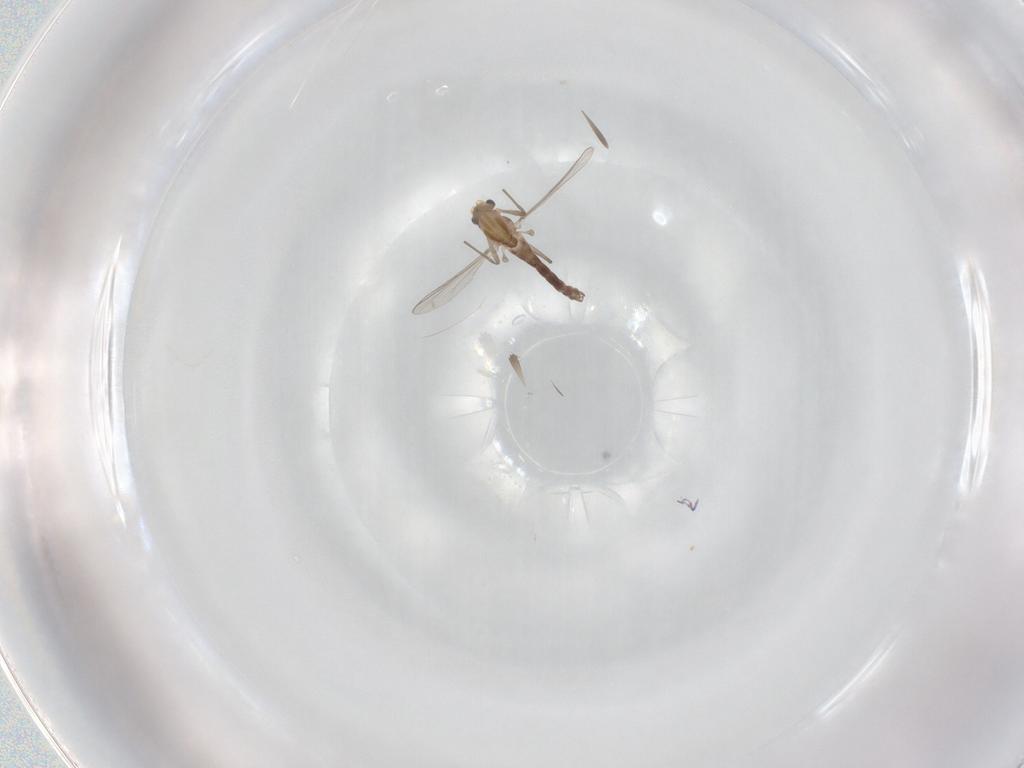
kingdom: Animalia
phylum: Arthropoda
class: Insecta
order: Diptera
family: Chironomidae
